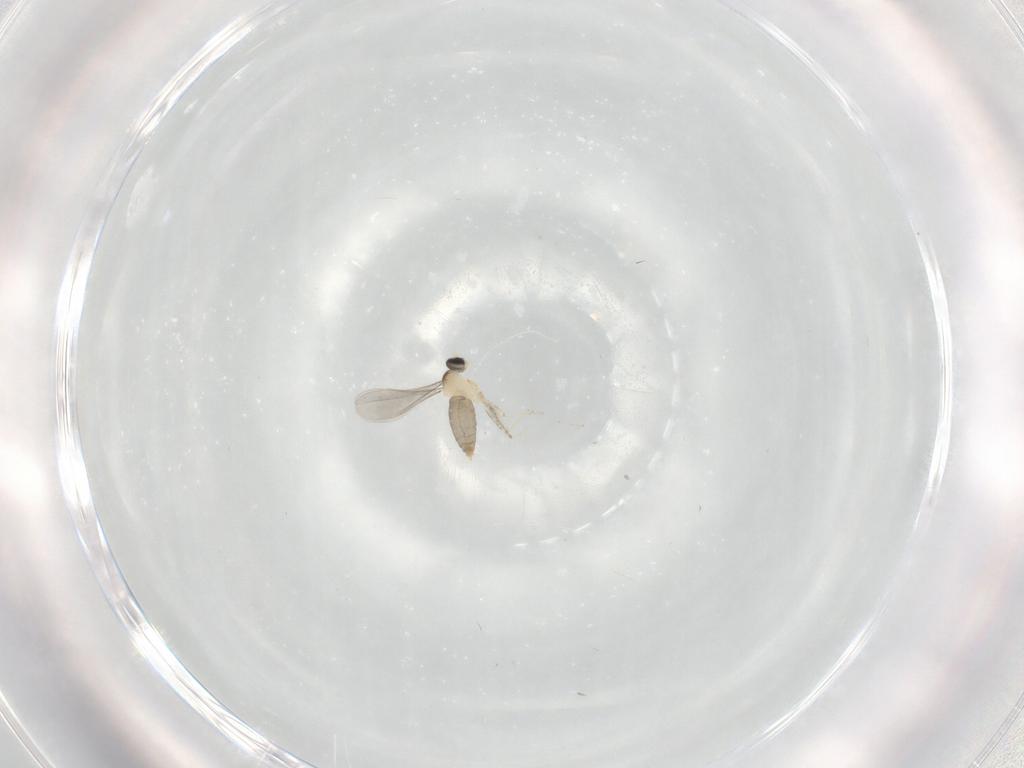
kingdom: Animalia
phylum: Arthropoda
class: Insecta
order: Diptera
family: Cecidomyiidae
